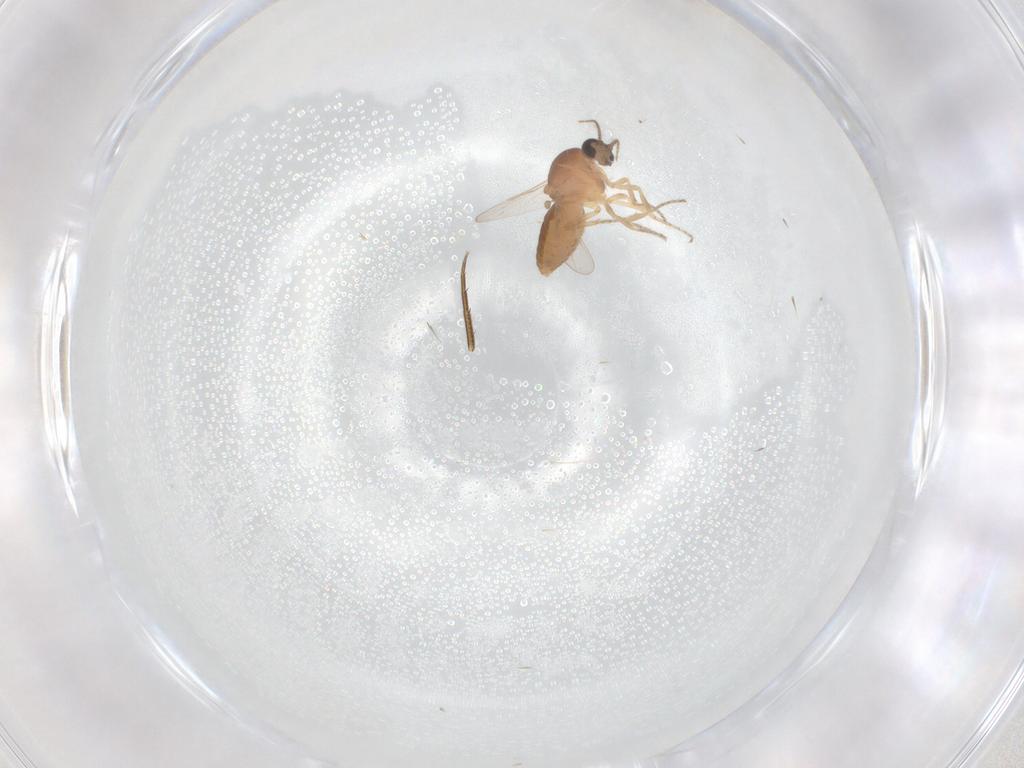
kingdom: Animalia
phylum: Arthropoda
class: Insecta
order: Diptera
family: Ceratopogonidae
